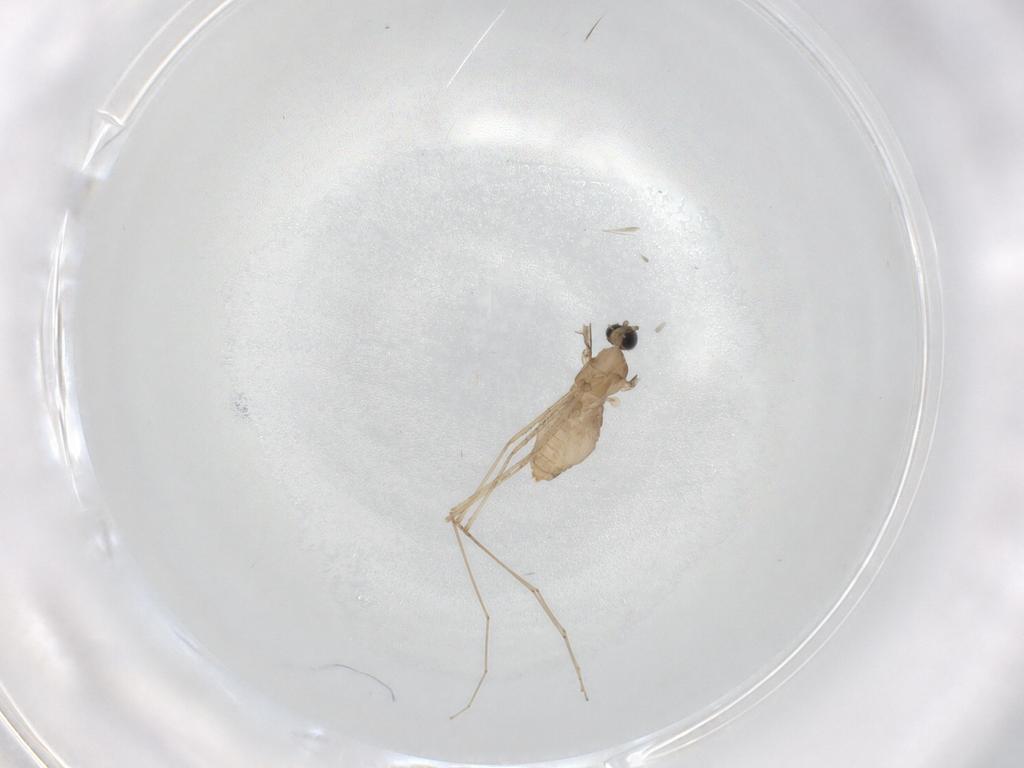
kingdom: Animalia
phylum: Arthropoda
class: Insecta
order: Diptera
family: Cecidomyiidae
